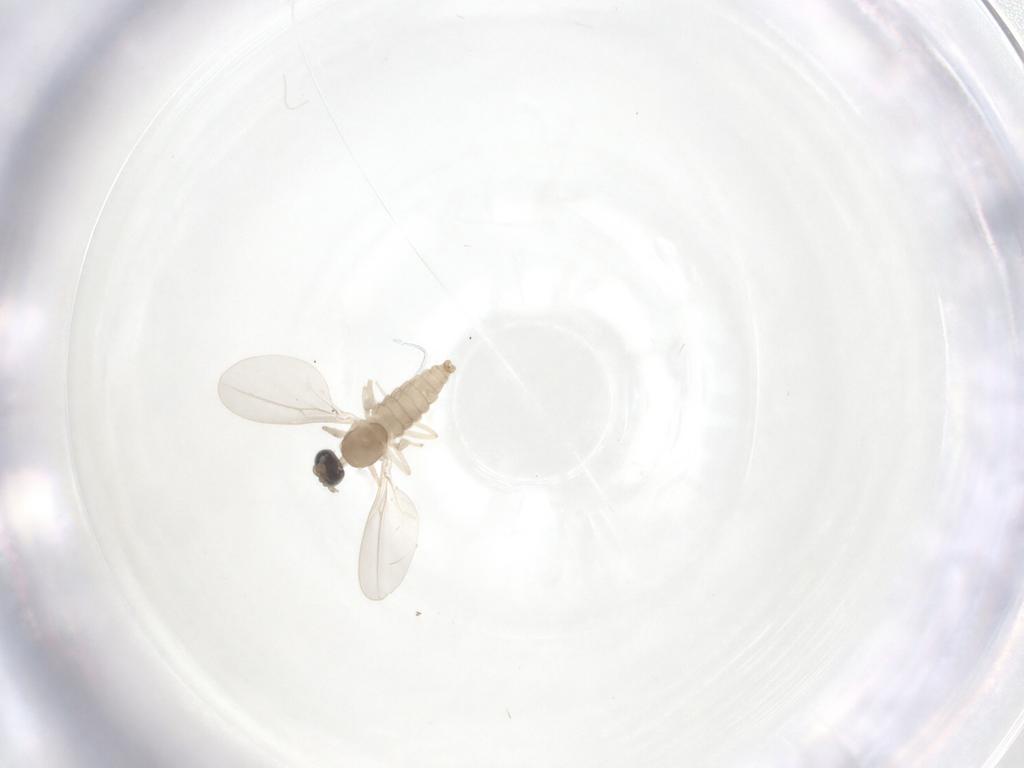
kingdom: Animalia
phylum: Arthropoda
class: Insecta
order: Diptera
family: Cecidomyiidae
